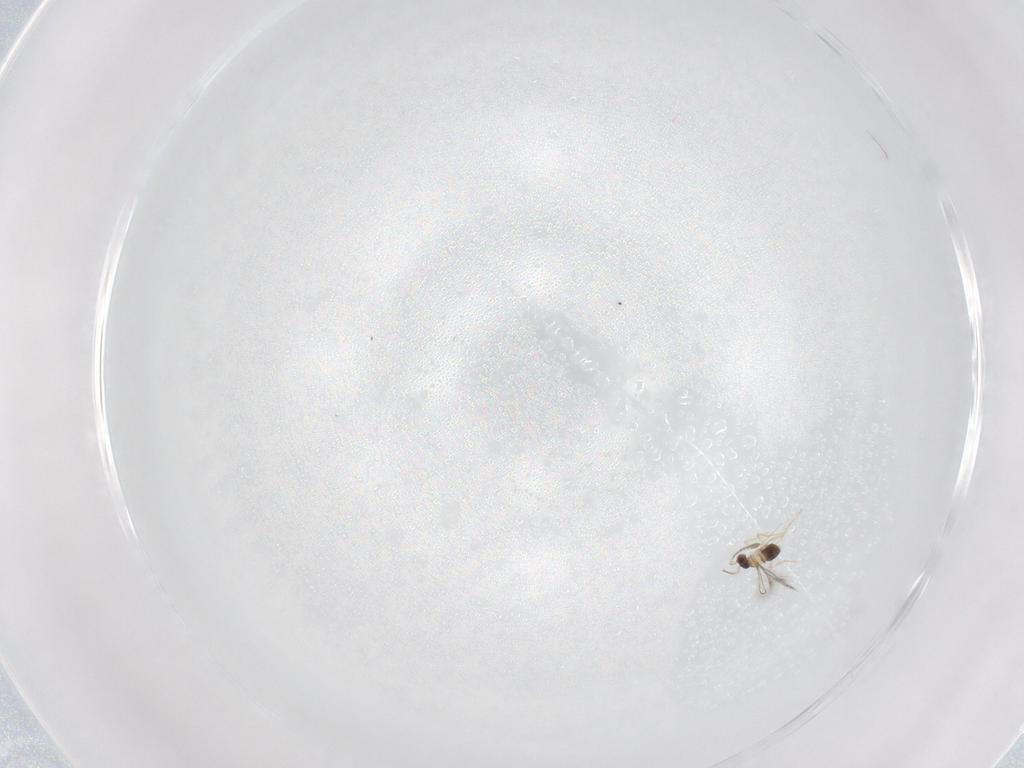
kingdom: Animalia
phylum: Arthropoda
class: Insecta
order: Hymenoptera
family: Mymaridae
